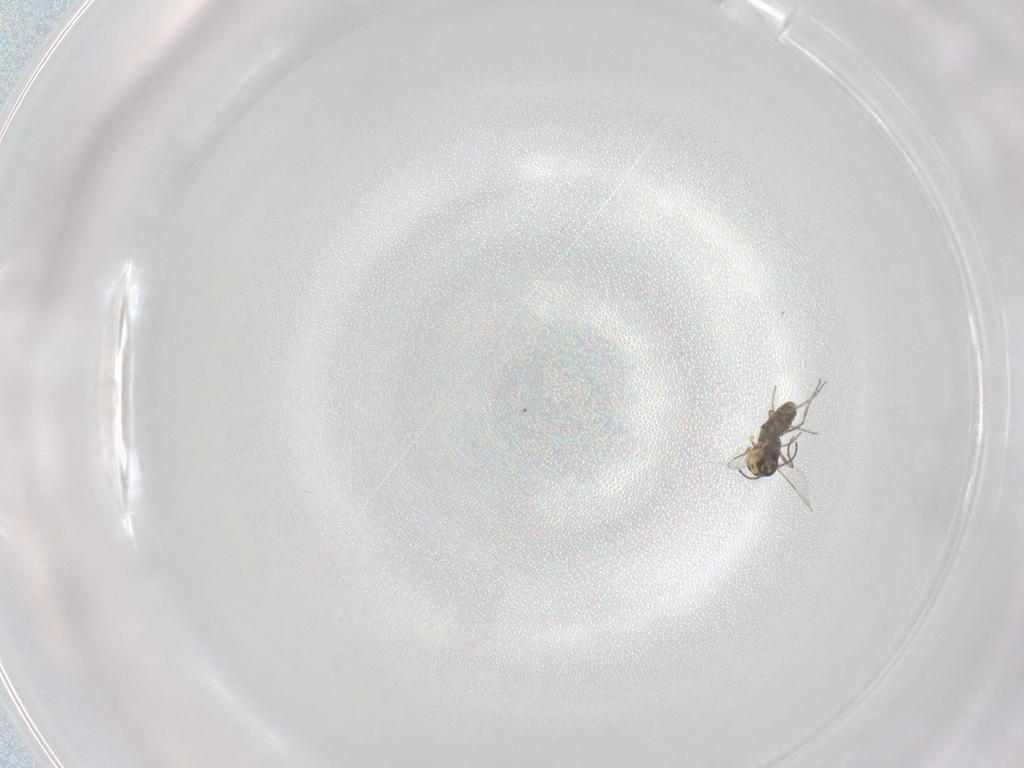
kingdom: Animalia
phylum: Arthropoda
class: Insecta
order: Diptera
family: Ceratopogonidae
